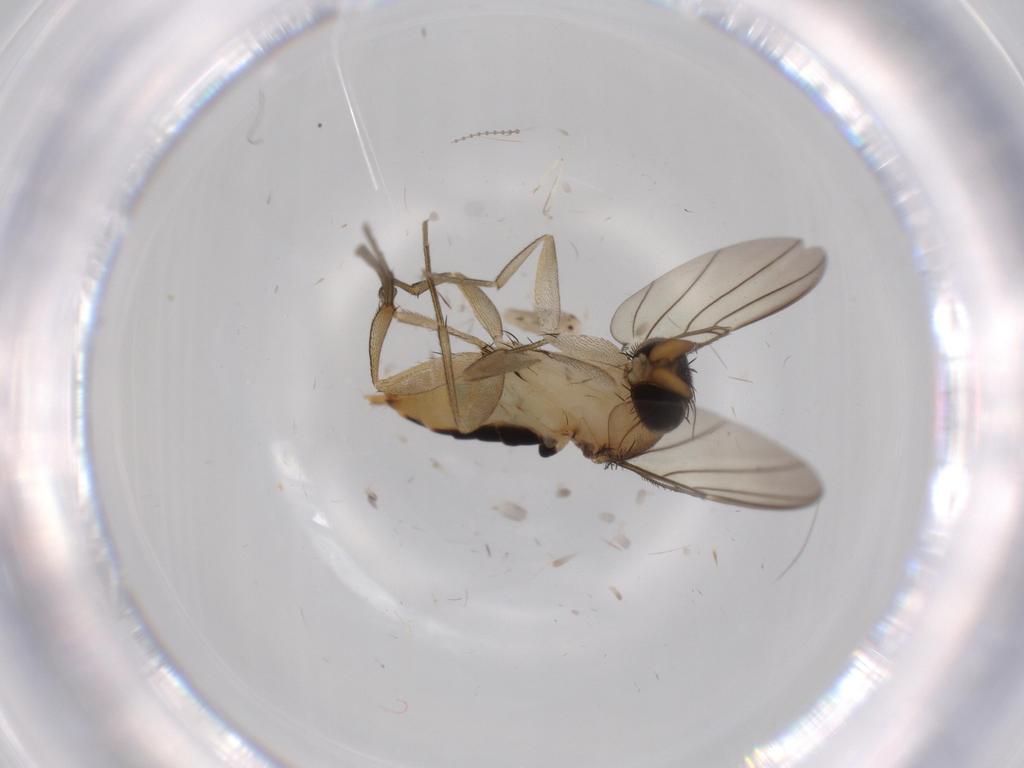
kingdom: Animalia
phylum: Arthropoda
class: Insecta
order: Diptera
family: Phoridae
